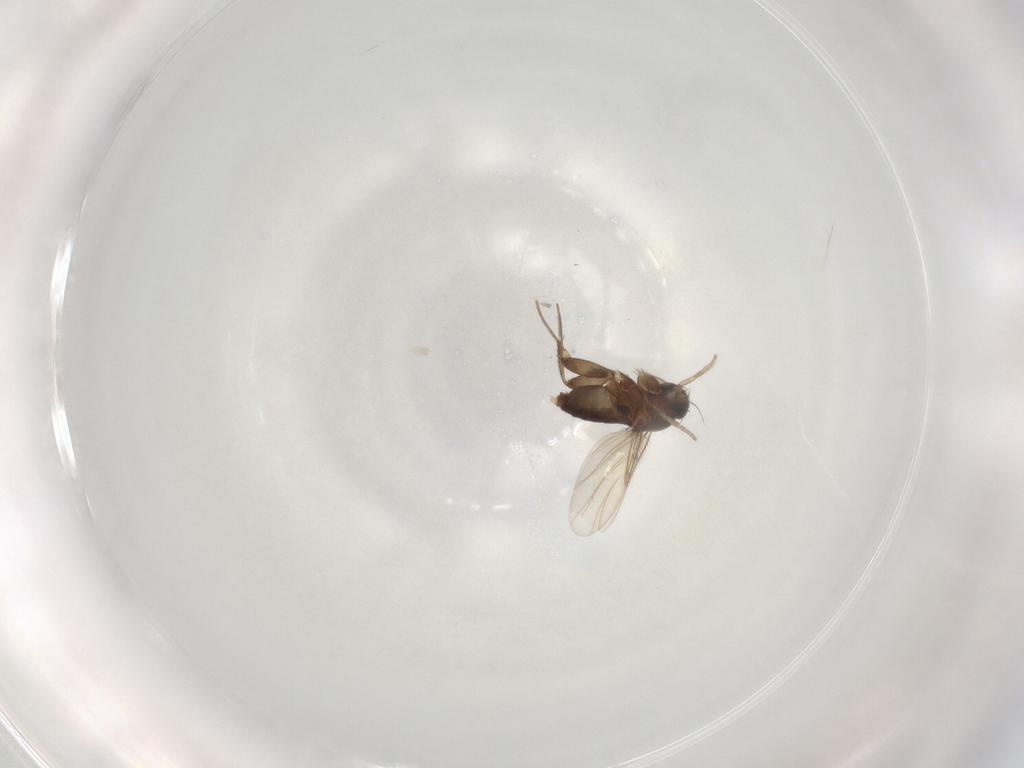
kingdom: Animalia
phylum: Arthropoda
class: Insecta
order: Diptera
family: Phoridae
